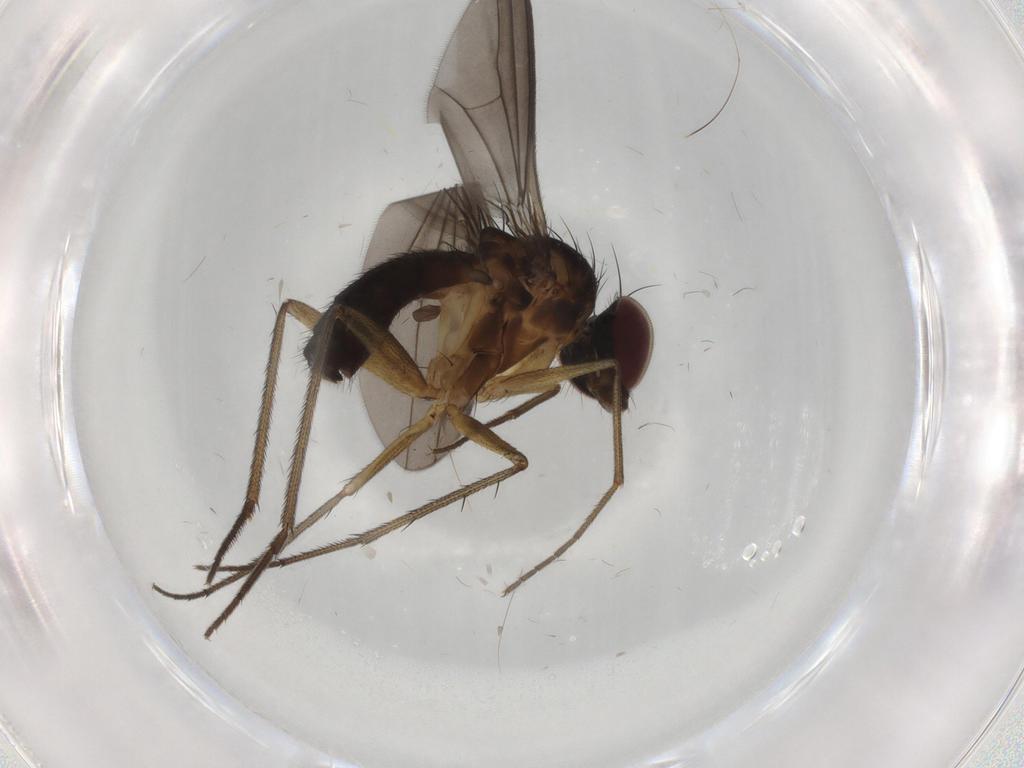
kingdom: Animalia
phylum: Arthropoda
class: Insecta
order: Diptera
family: Dolichopodidae
